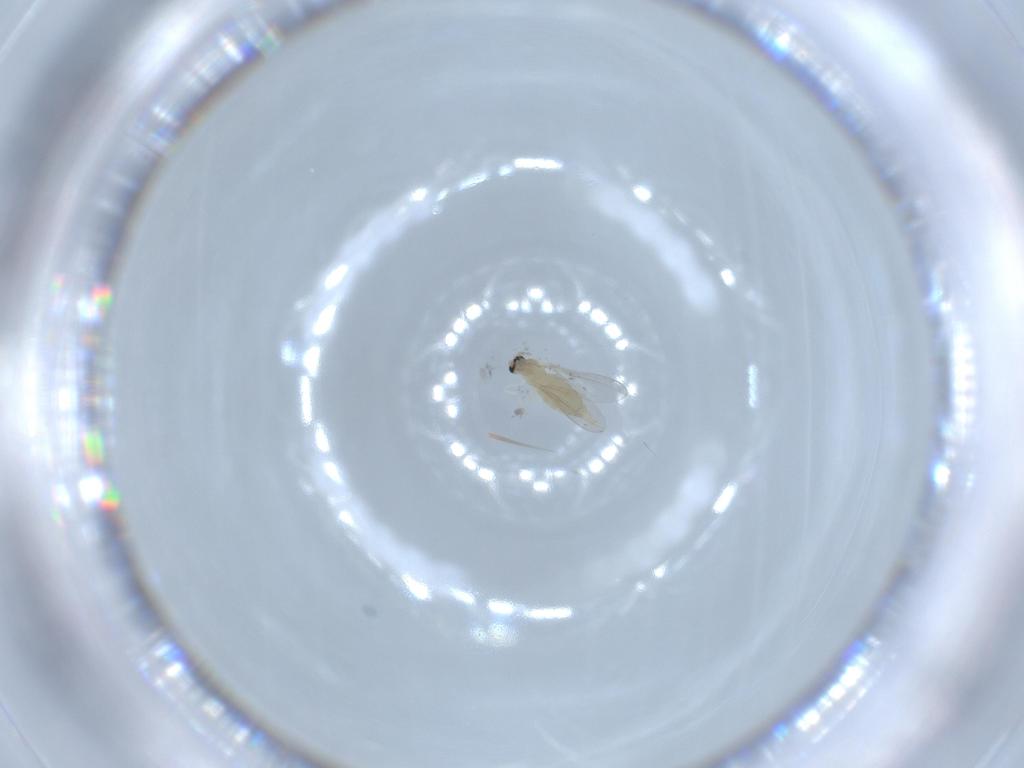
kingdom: Animalia
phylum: Arthropoda
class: Insecta
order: Diptera
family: Cecidomyiidae
